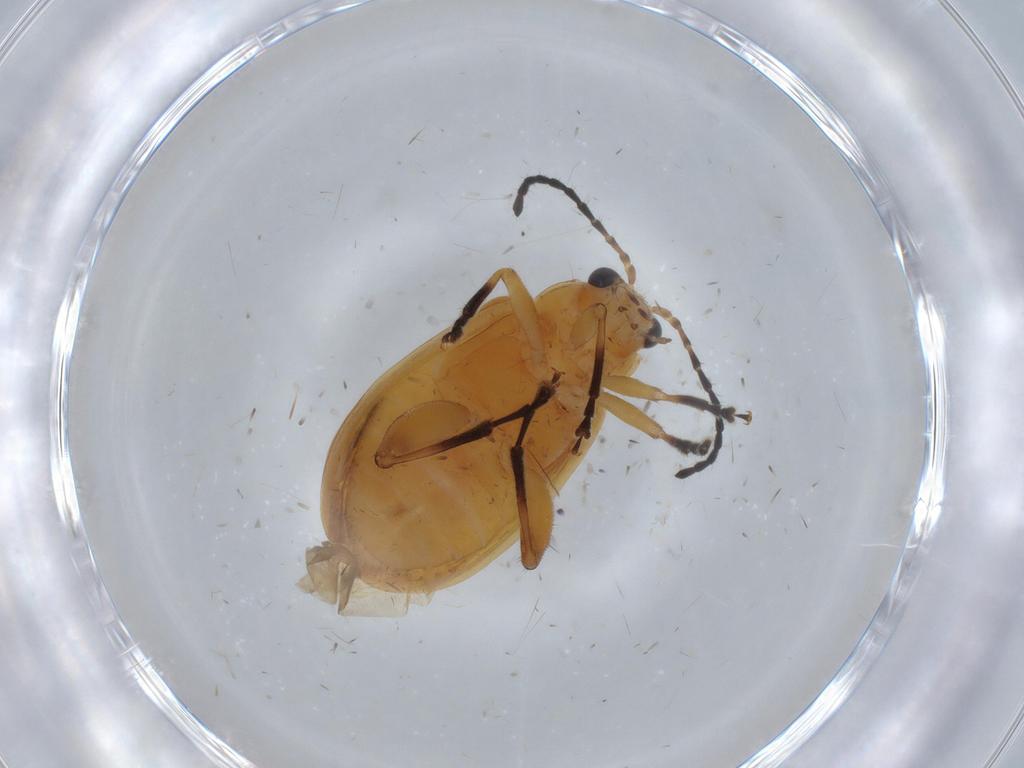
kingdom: Animalia
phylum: Arthropoda
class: Insecta
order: Coleoptera
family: Chrysomelidae
